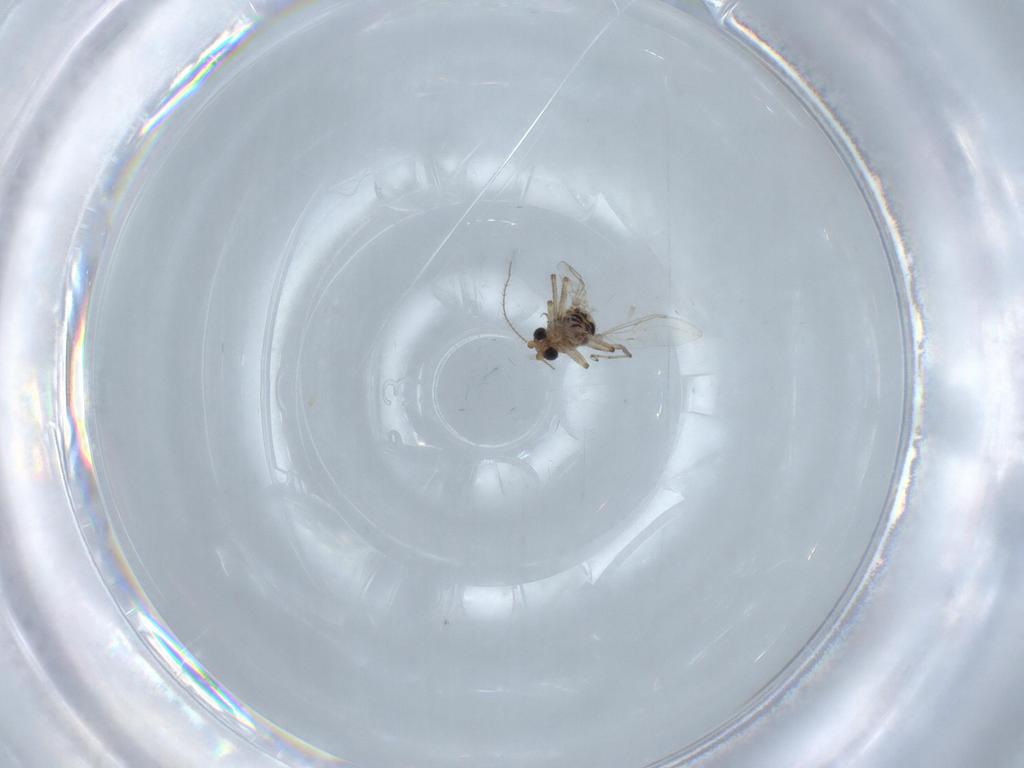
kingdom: Animalia
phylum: Arthropoda
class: Insecta
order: Diptera
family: Ceratopogonidae
